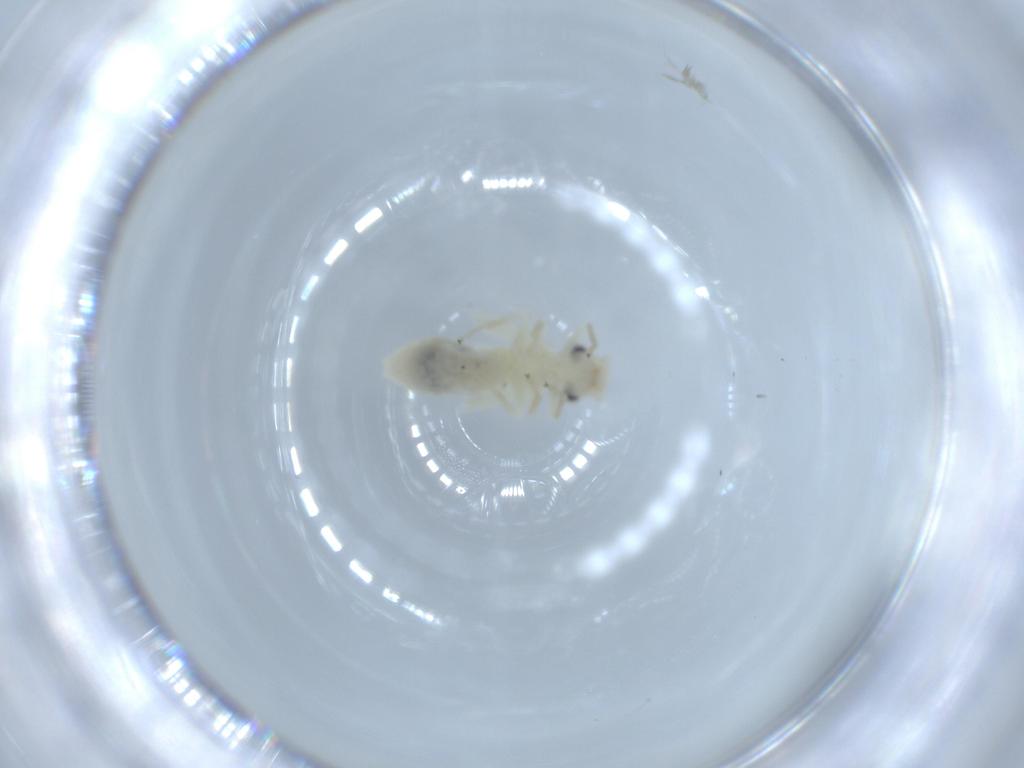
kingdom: Animalia
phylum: Arthropoda
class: Insecta
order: Psocodea
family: Caeciliusidae
